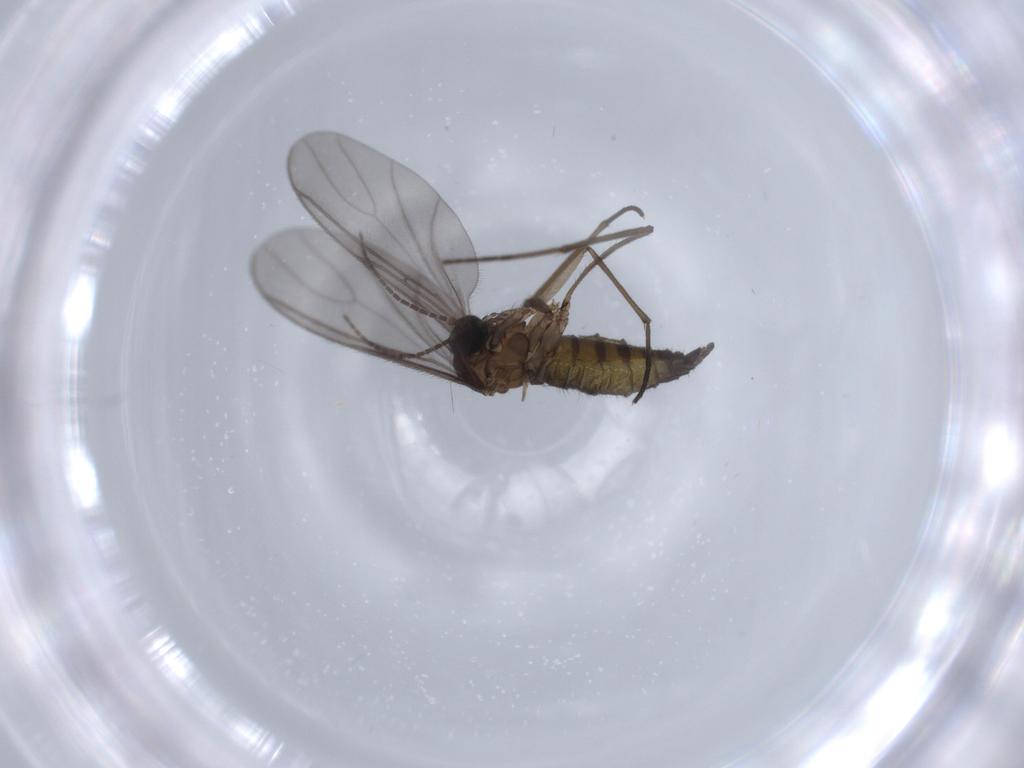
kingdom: Animalia
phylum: Arthropoda
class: Insecta
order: Diptera
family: Sciaridae
